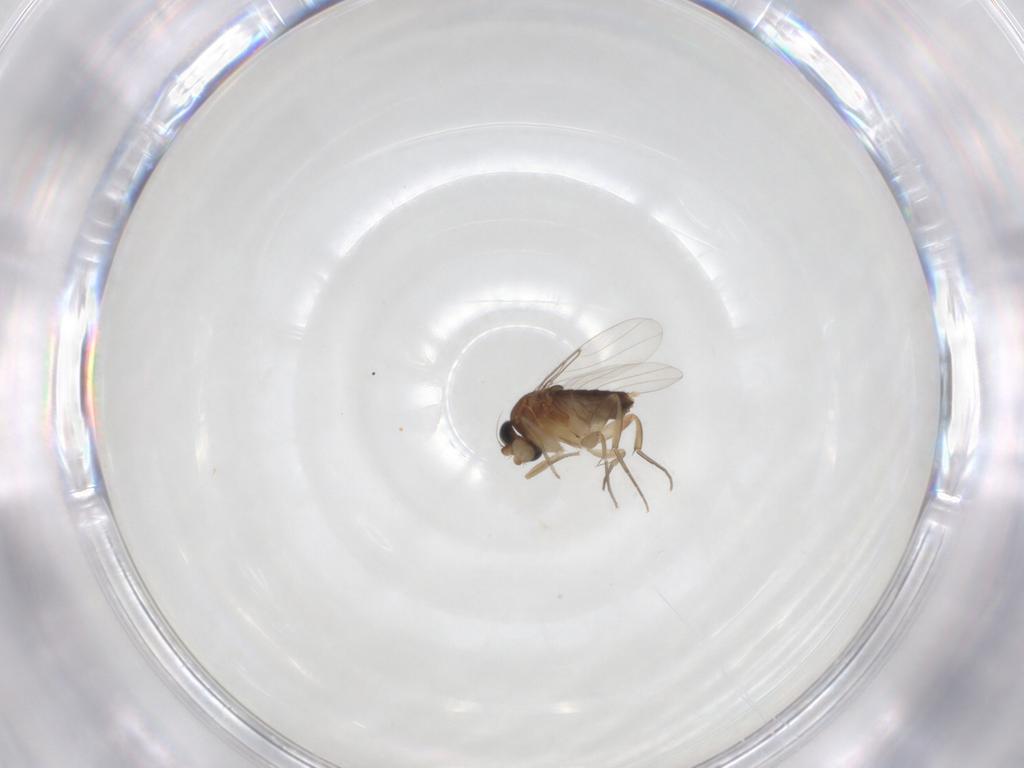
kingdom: Animalia
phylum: Arthropoda
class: Insecta
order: Diptera
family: Phoridae
